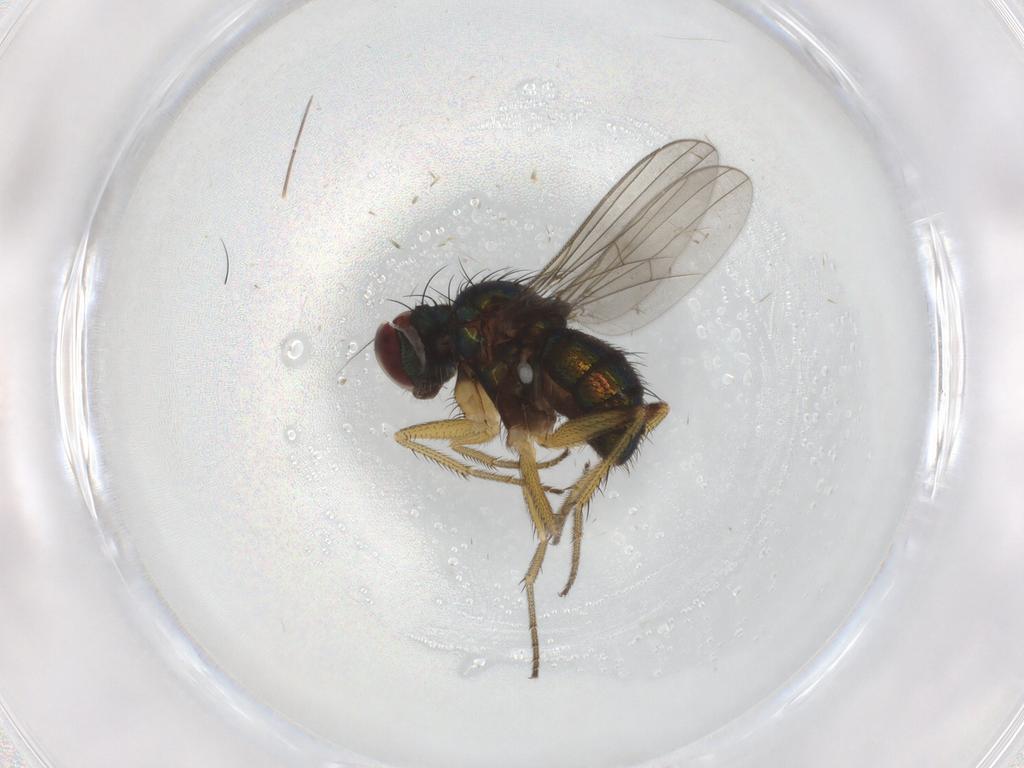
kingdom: Animalia
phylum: Arthropoda
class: Insecta
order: Diptera
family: Dolichopodidae
